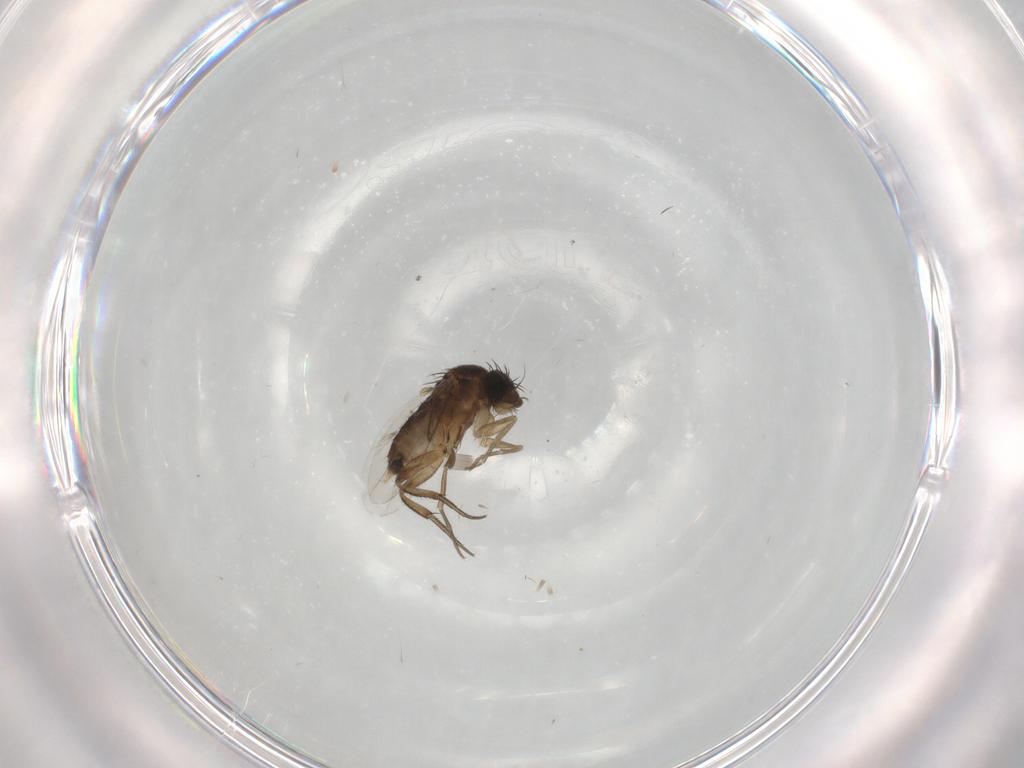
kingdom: Animalia
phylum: Arthropoda
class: Insecta
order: Diptera
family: Phoridae
